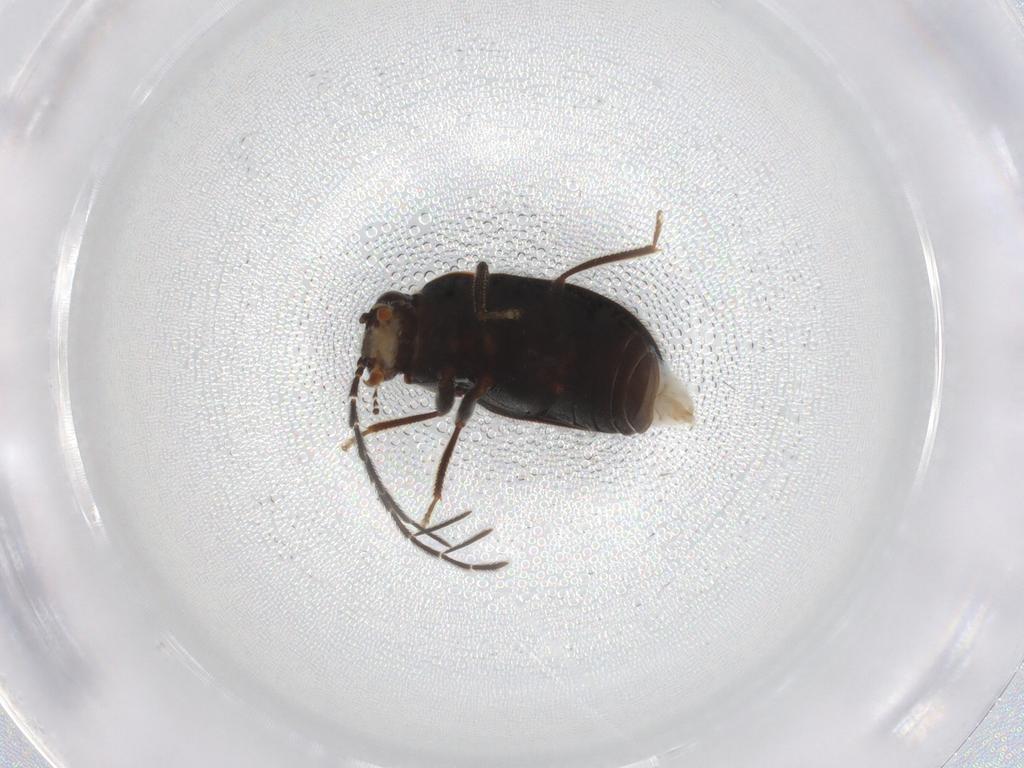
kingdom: Animalia
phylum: Arthropoda
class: Insecta
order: Coleoptera
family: Ptilodactylidae
